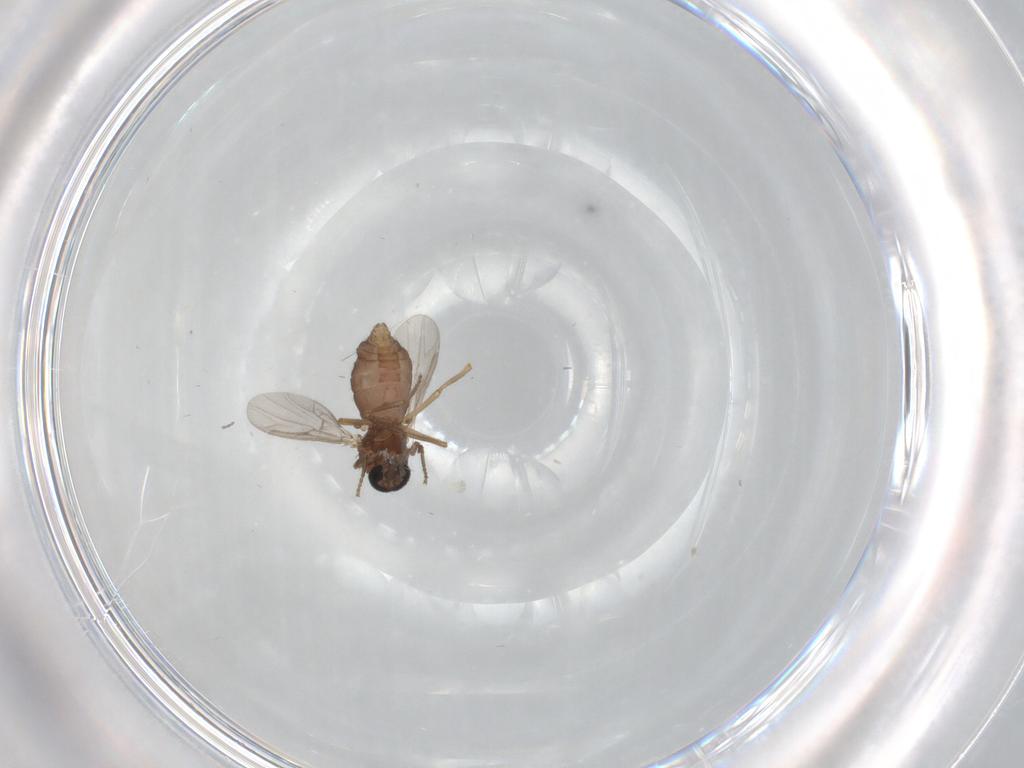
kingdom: Animalia
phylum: Arthropoda
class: Insecta
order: Diptera
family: Ceratopogonidae
